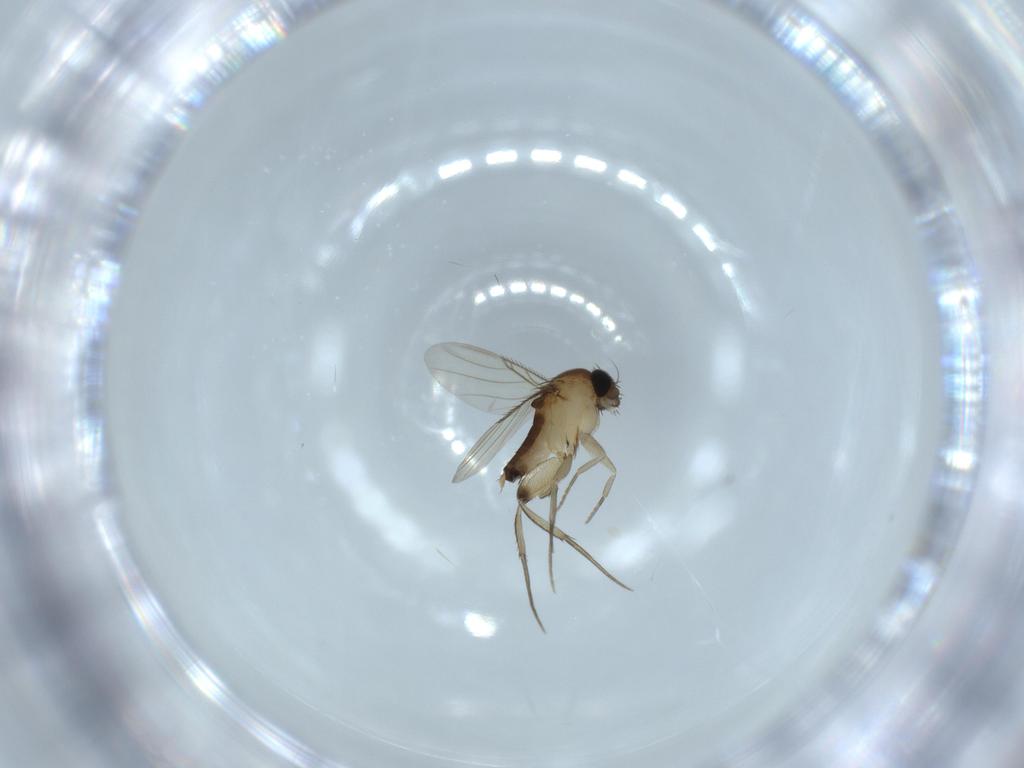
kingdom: Animalia
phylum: Arthropoda
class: Insecta
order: Diptera
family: Phoridae
